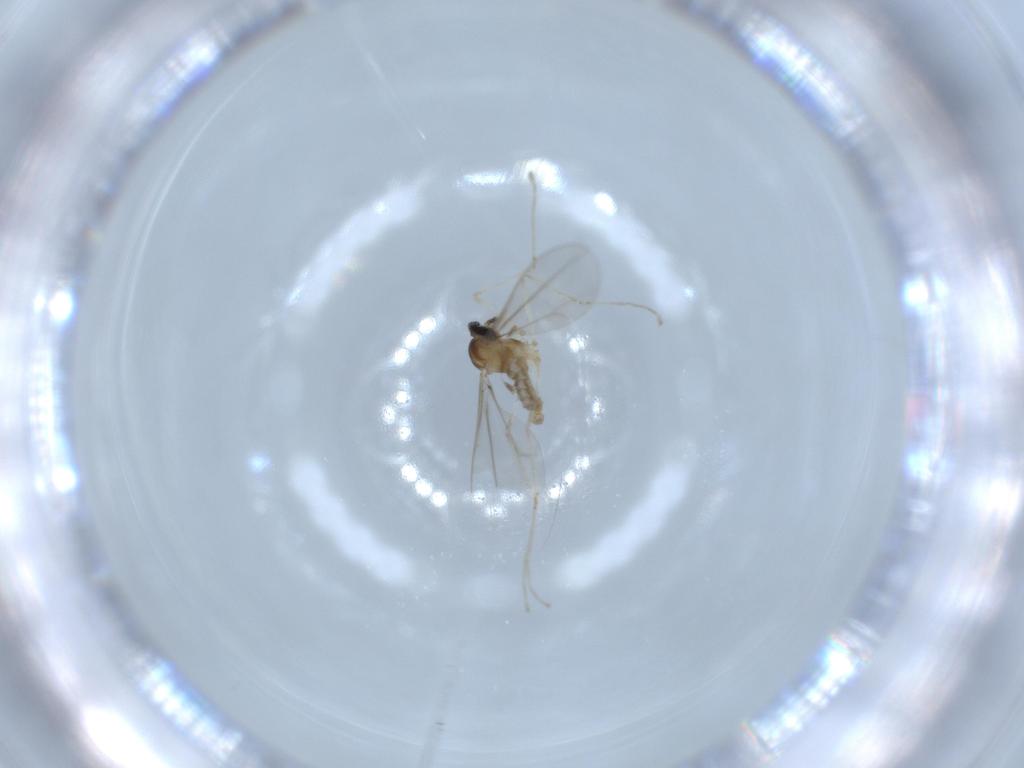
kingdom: Animalia
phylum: Arthropoda
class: Insecta
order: Diptera
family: Cecidomyiidae
